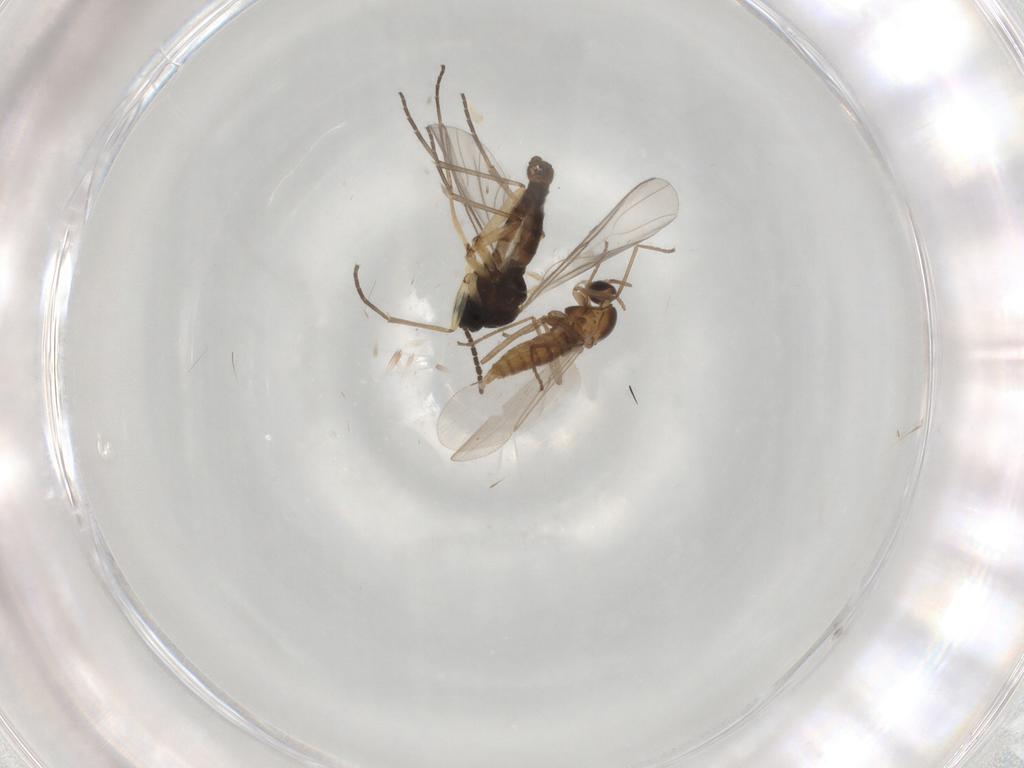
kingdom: Animalia
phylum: Arthropoda
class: Insecta
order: Diptera
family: Sciaridae
